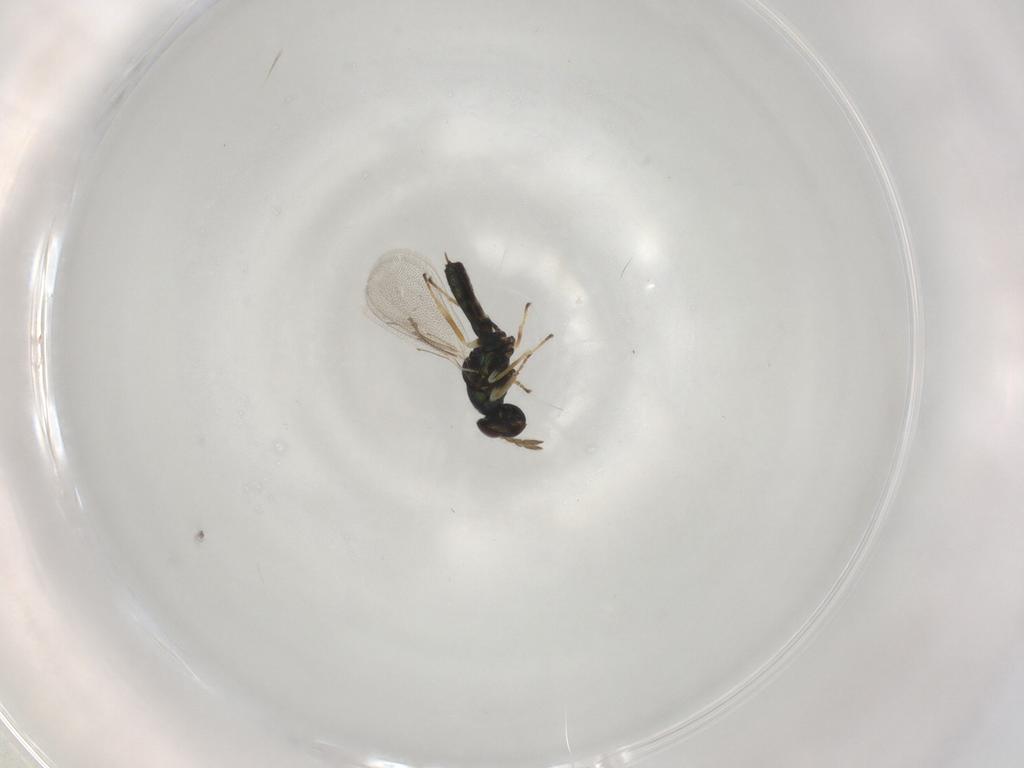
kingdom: Animalia
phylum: Arthropoda
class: Insecta
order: Hymenoptera
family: Eulophidae
